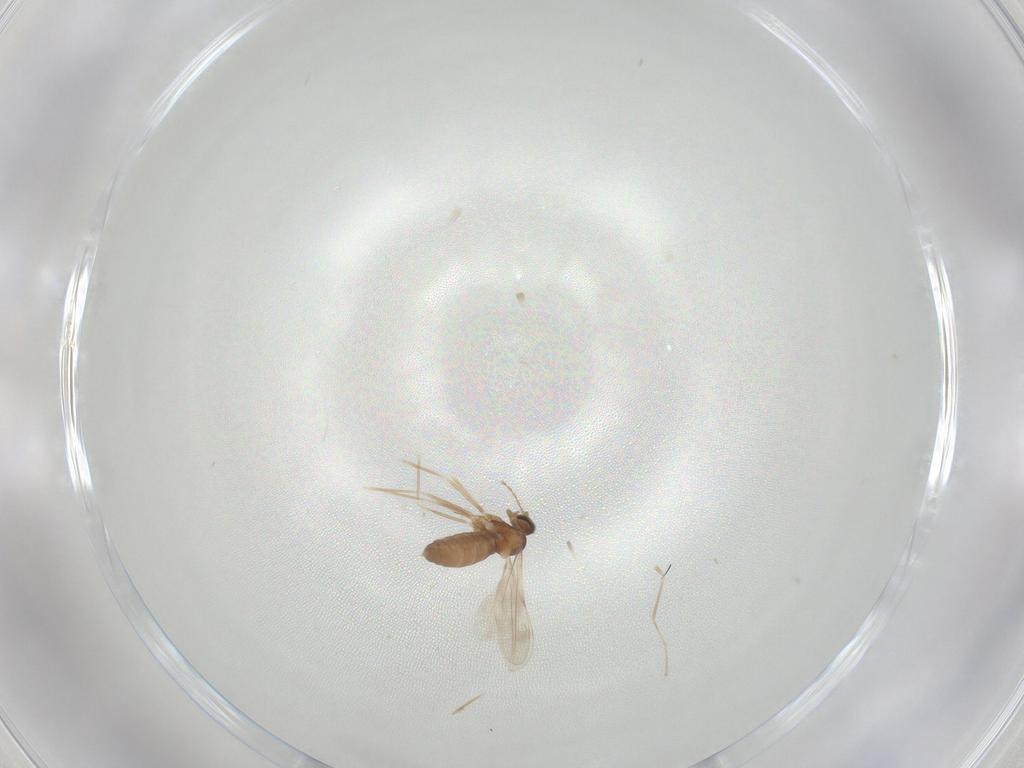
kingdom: Animalia
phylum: Arthropoda
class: Insecta
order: Diptera
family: Cecidomyiidae
